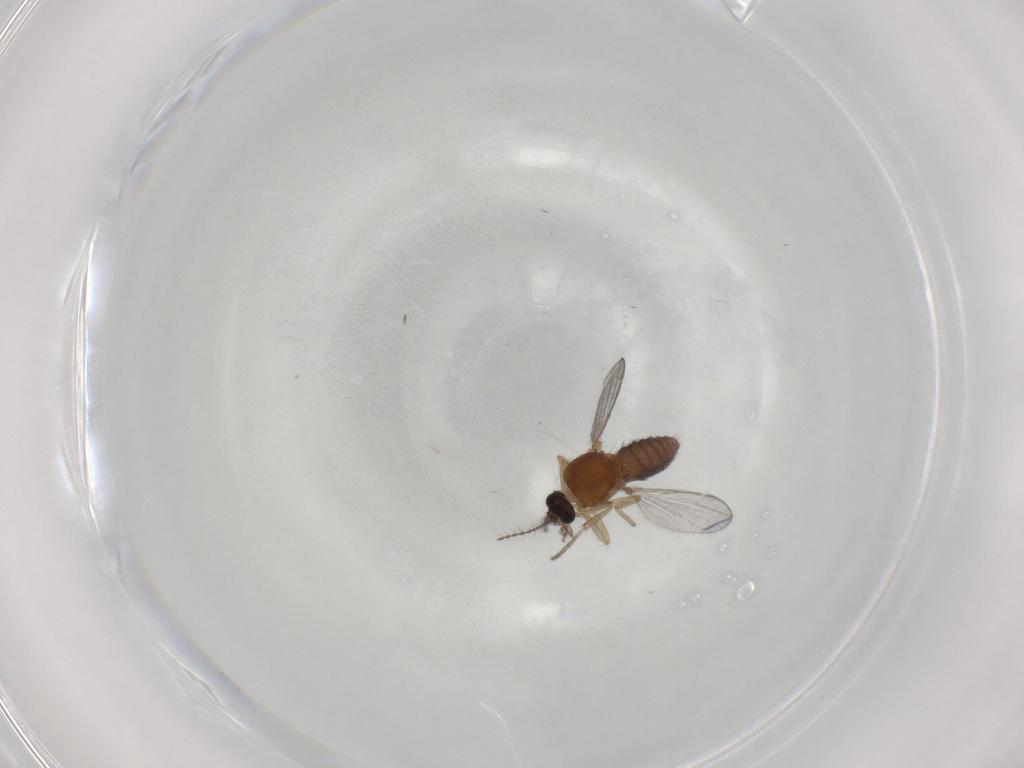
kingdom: Animalia
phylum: Arthropoda
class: Insecta
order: Diptera
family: Ceratopogonidae
